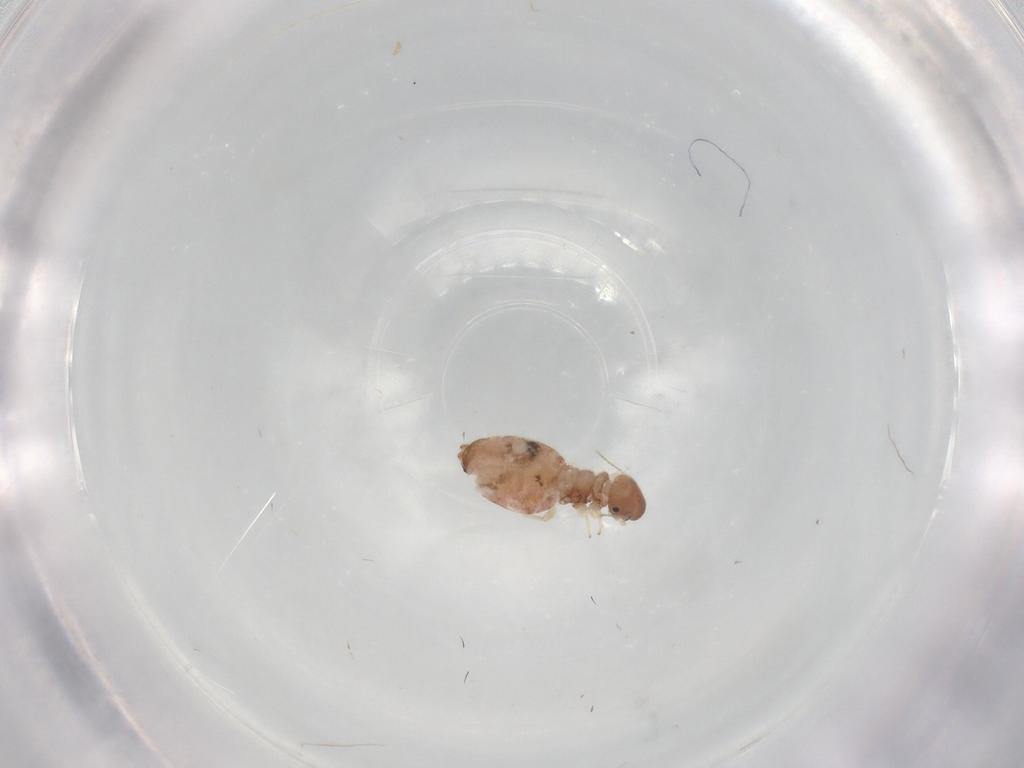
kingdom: Animalia
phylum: Arthropoda
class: Insecta
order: Psocodea
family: Archipsocidae
